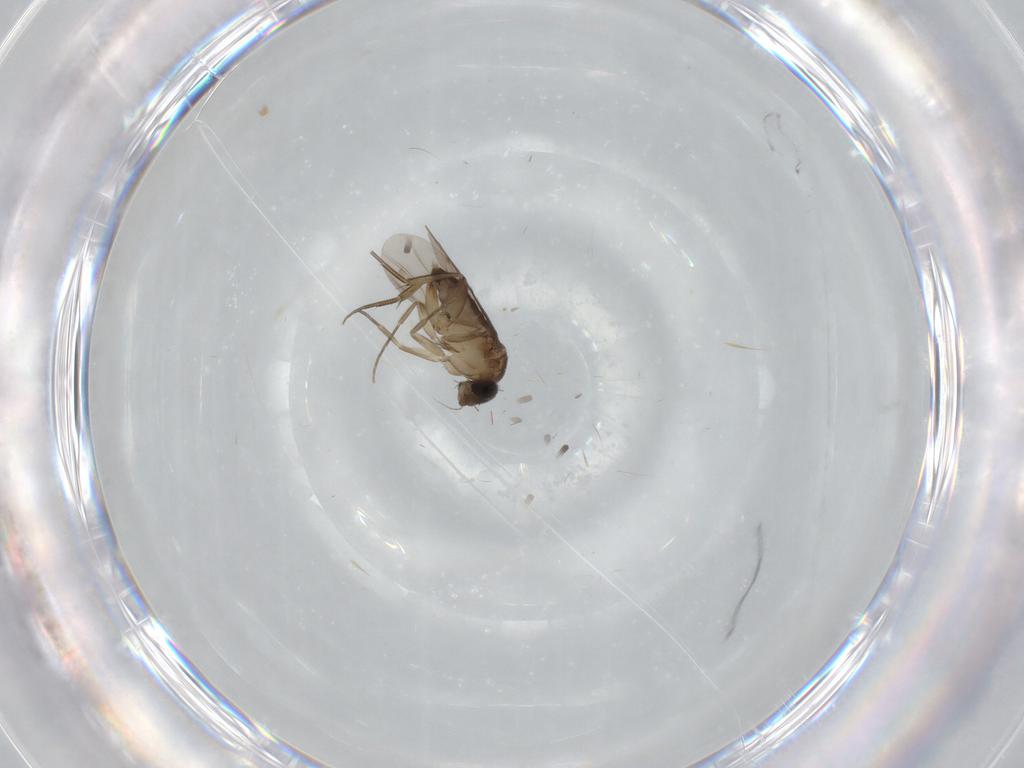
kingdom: Animalia
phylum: Arthropoda
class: Insecta
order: Diptera
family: Phoridae
